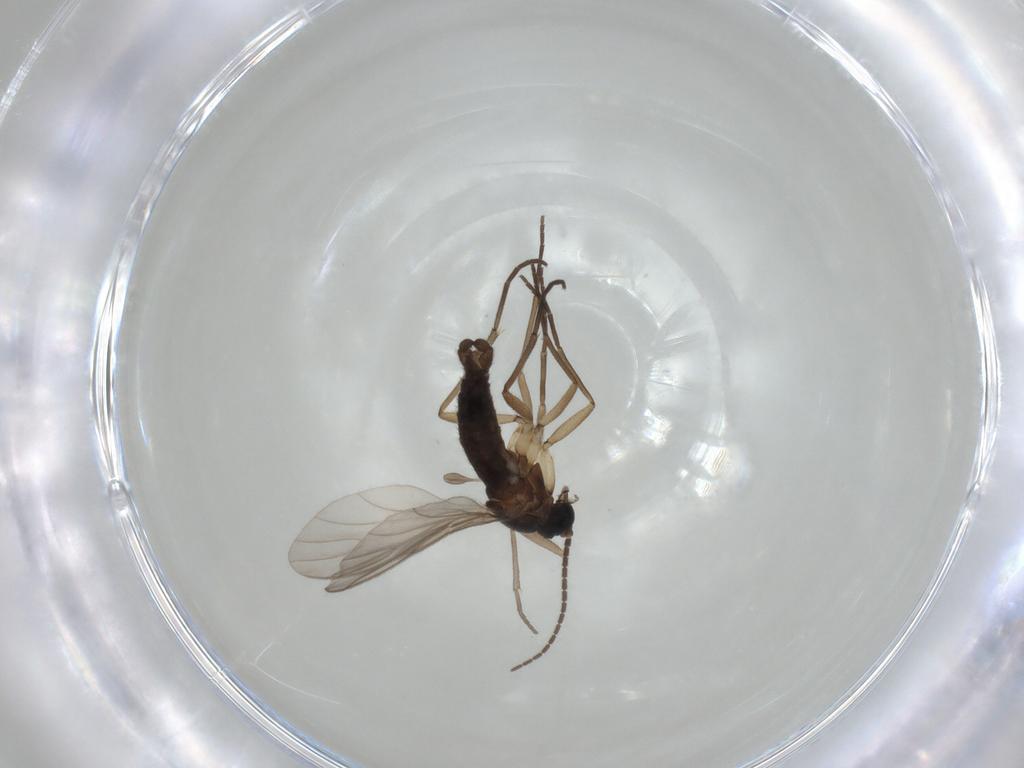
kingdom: Animalia
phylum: Arthropoda
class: Insecta
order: Diptera
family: Sciaridae
